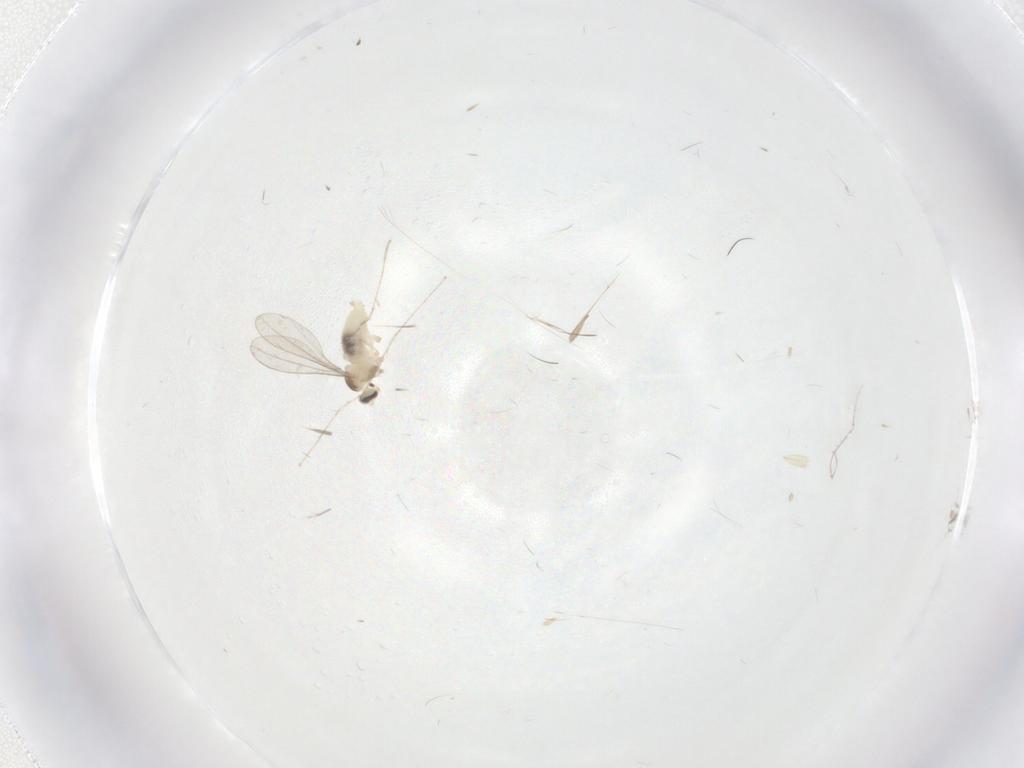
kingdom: Animalia
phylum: Arthropoda
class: Insecta
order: Diptera
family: Cecidomyiidae
